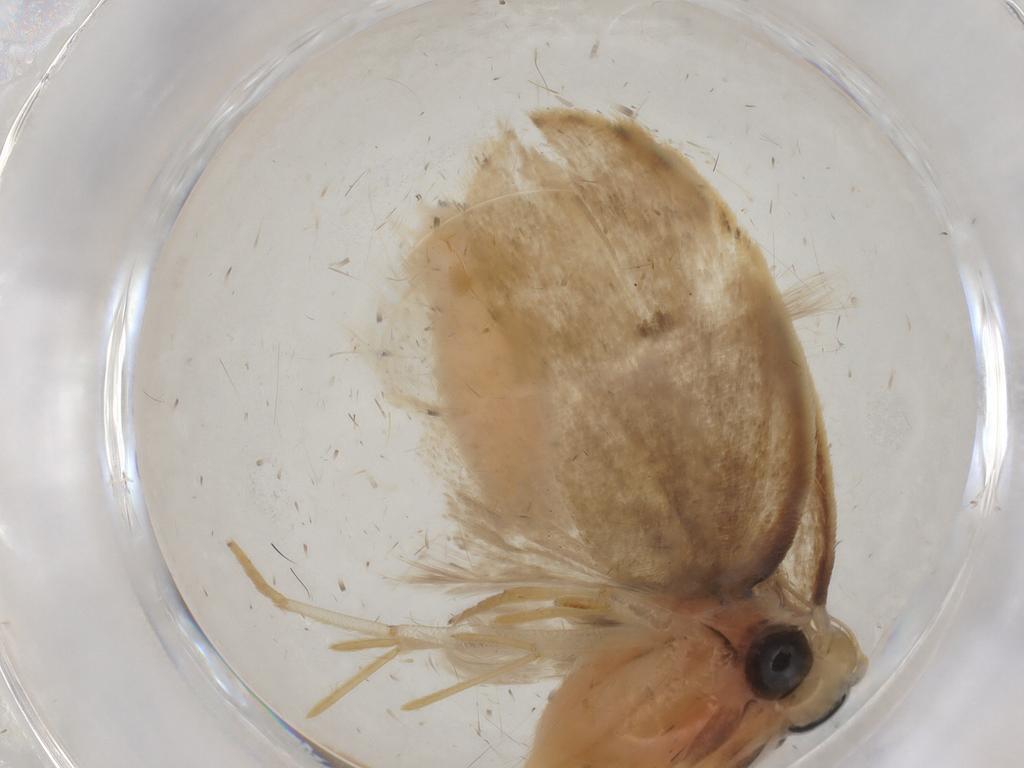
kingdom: Animalia
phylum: Arthropoda
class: Insecta
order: Lepidoptera
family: Depressariidae
